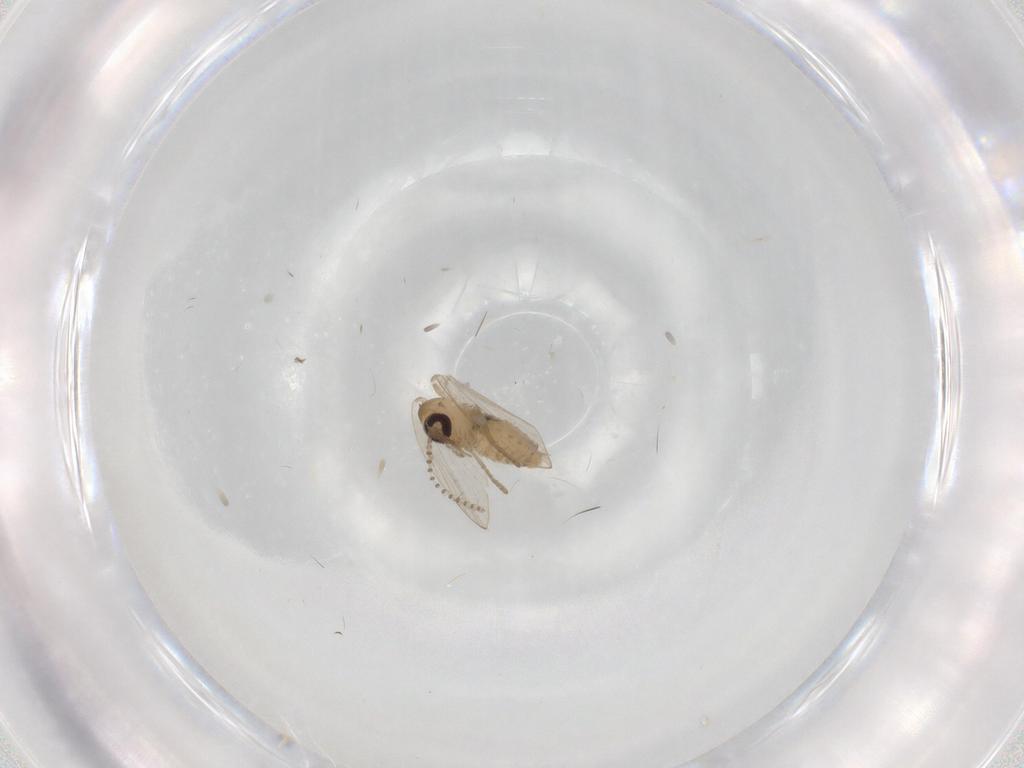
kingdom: Animalia
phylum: Arthropoda
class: Insecta
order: Diptera
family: Psychodidae
